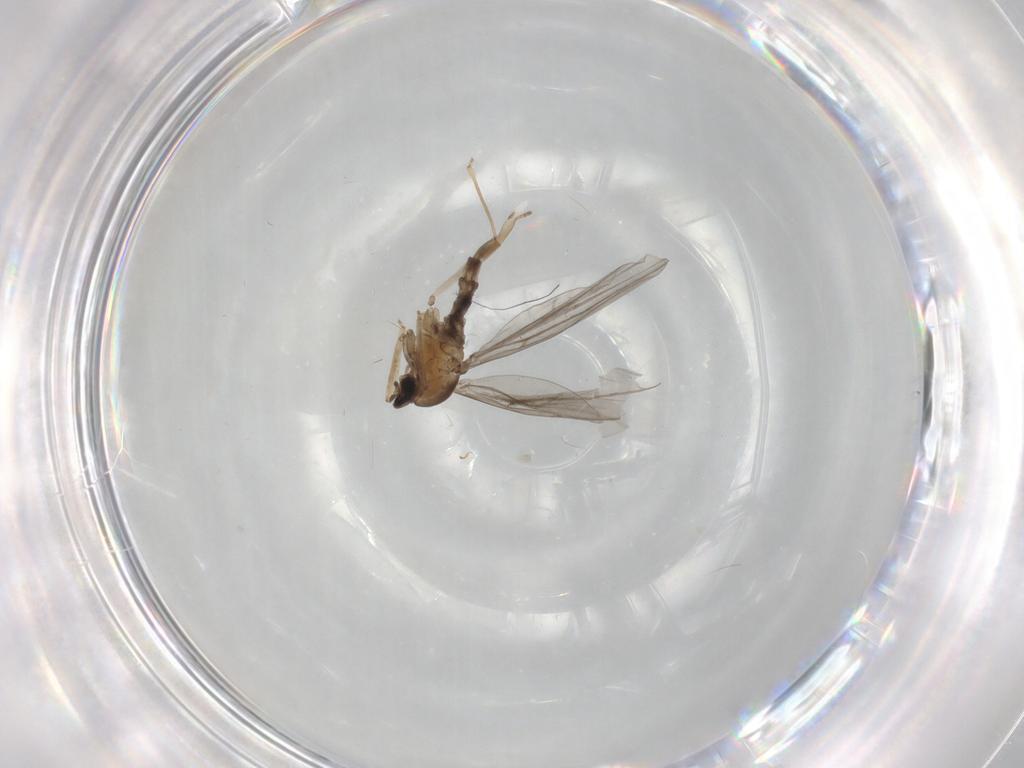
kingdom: Animalia
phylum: Arthropoda
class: Insecta
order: Diptera
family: Cecidomyiidae
